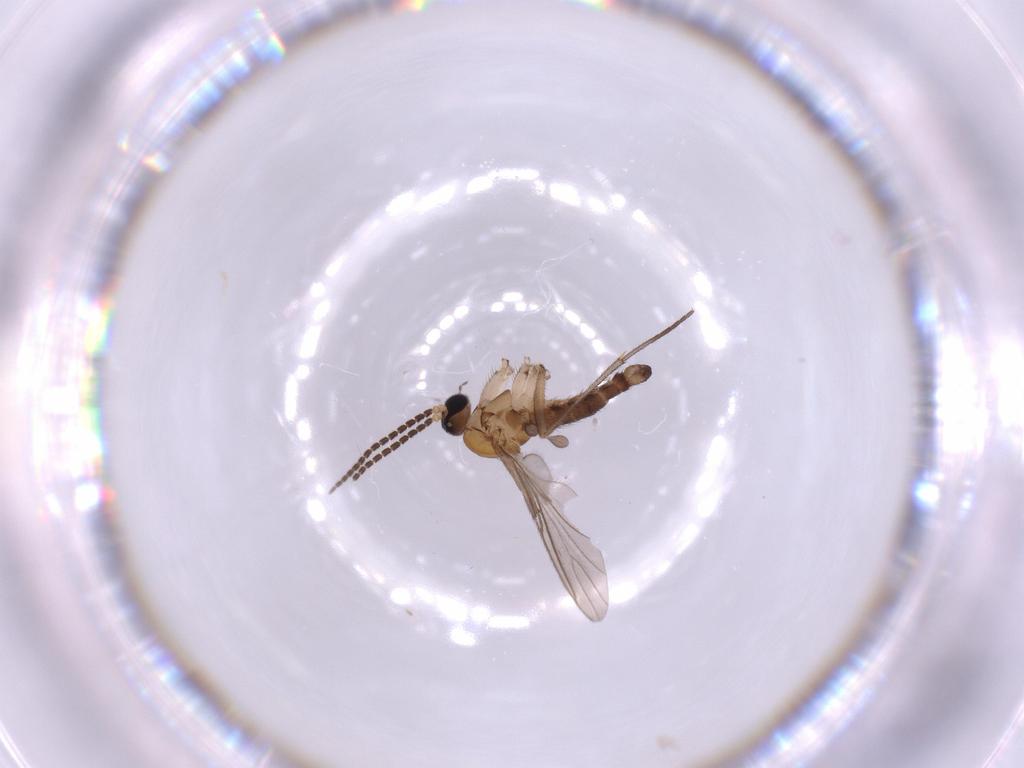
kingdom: Animalia
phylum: Arthropoda
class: Insecta
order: Diptera
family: Sciaridae
